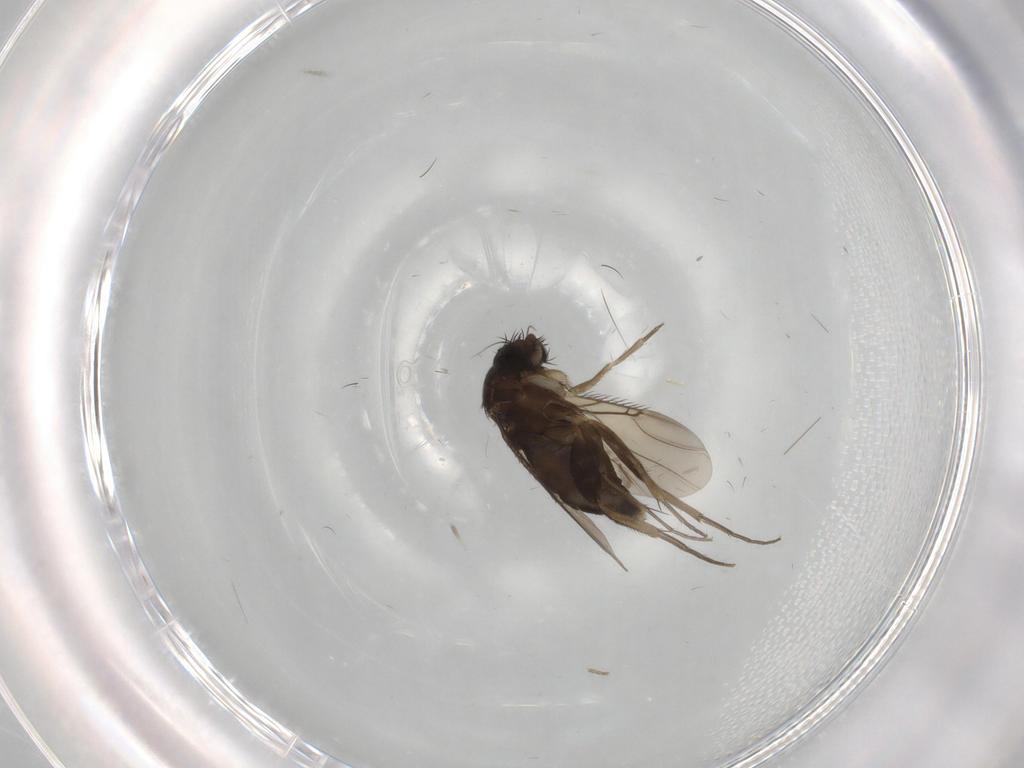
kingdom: Animalia
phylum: Arthropoda
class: Insecta
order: Diptera
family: Phoridae
